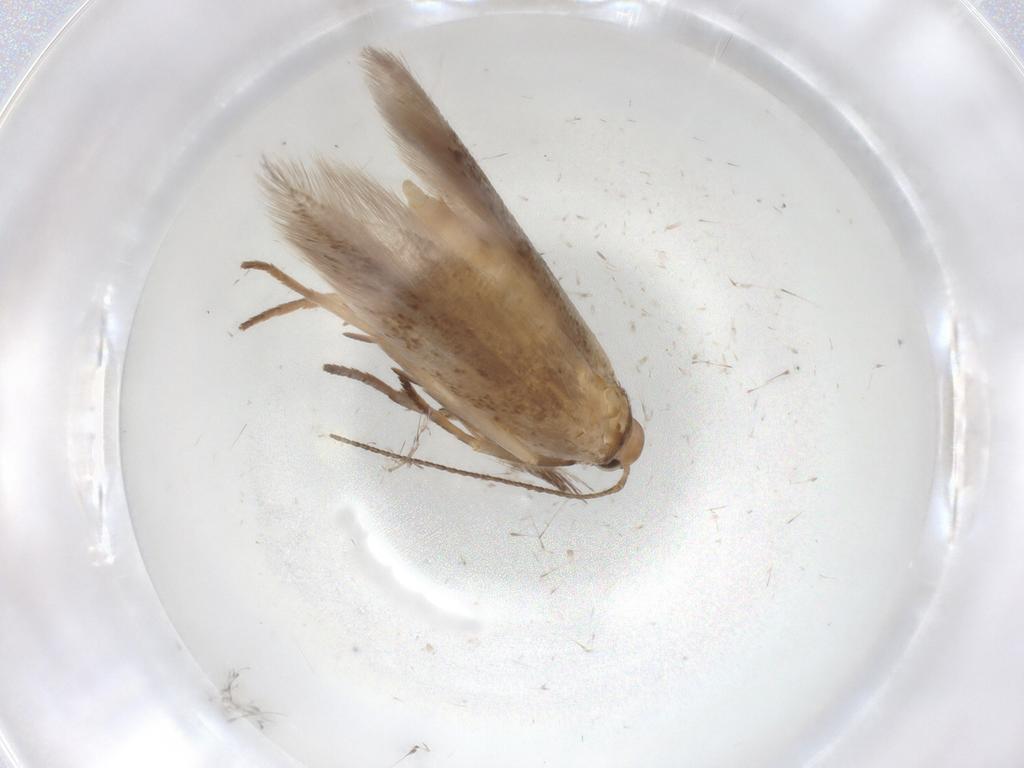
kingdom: Animalia
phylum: Arthropoda
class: Insecta
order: Lepidoptera
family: Gelechiidae
